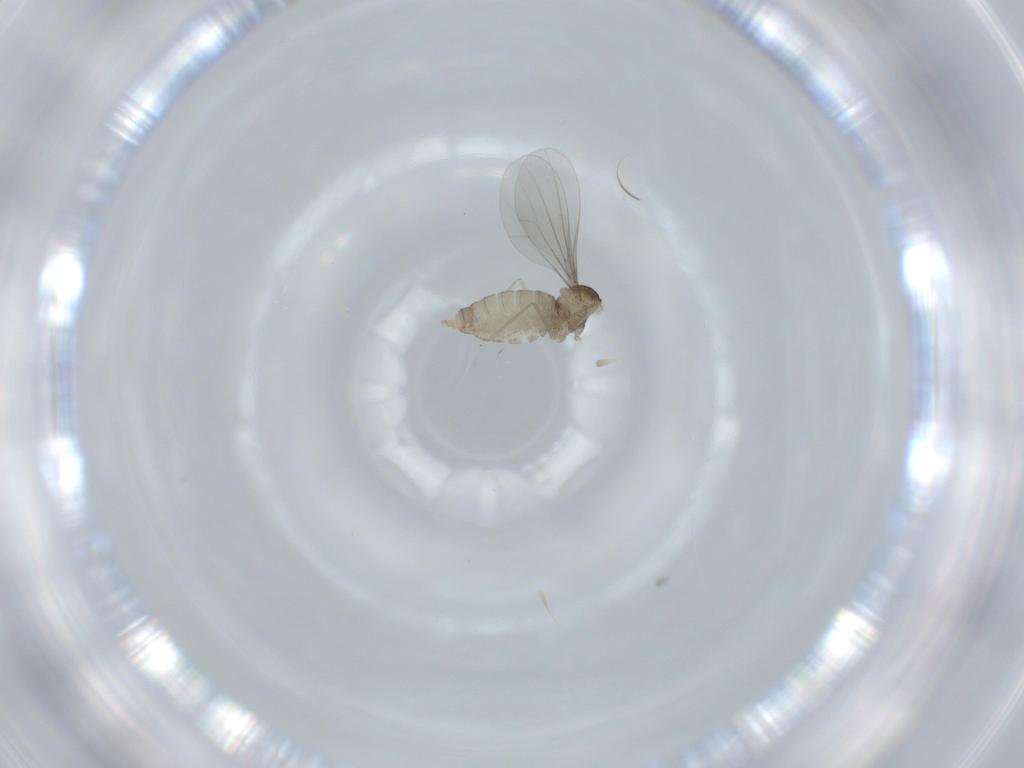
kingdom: Animalia
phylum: Arthropoda
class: Insecta
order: Diptera
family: Cecidomyiidae
